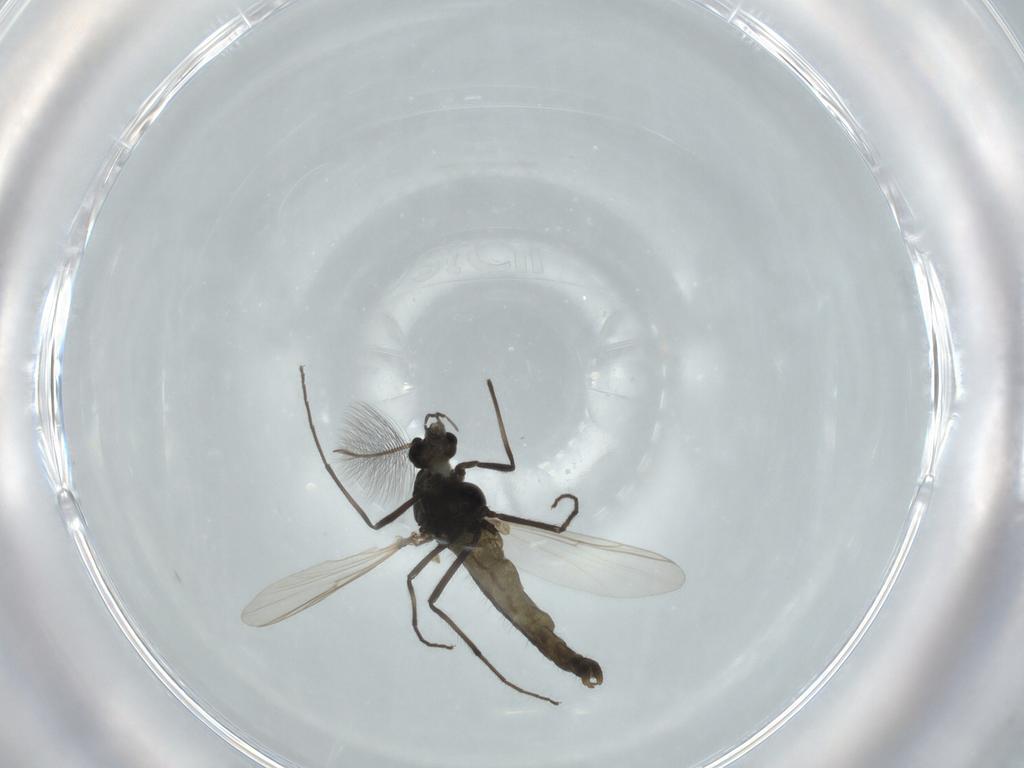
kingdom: Animalia
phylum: Arthropoda
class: Insecta
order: Diptera
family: Chironomidae
